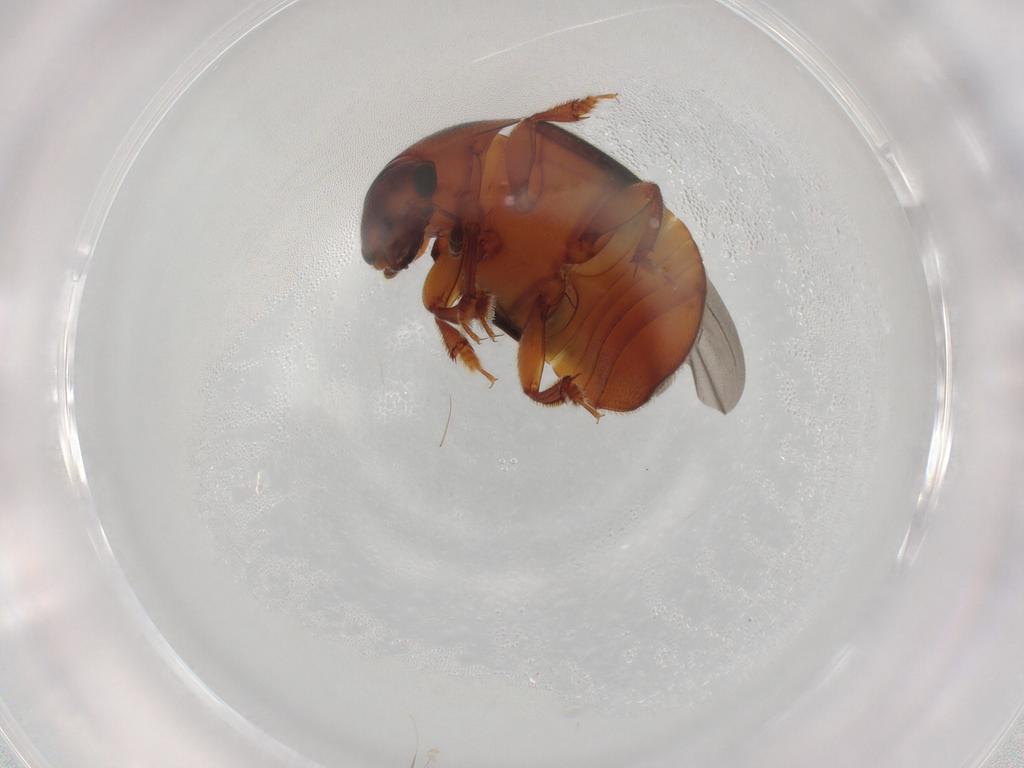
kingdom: Animalia
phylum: Arthropoda
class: Insecta
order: Coleoptera
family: Nitidulidae
